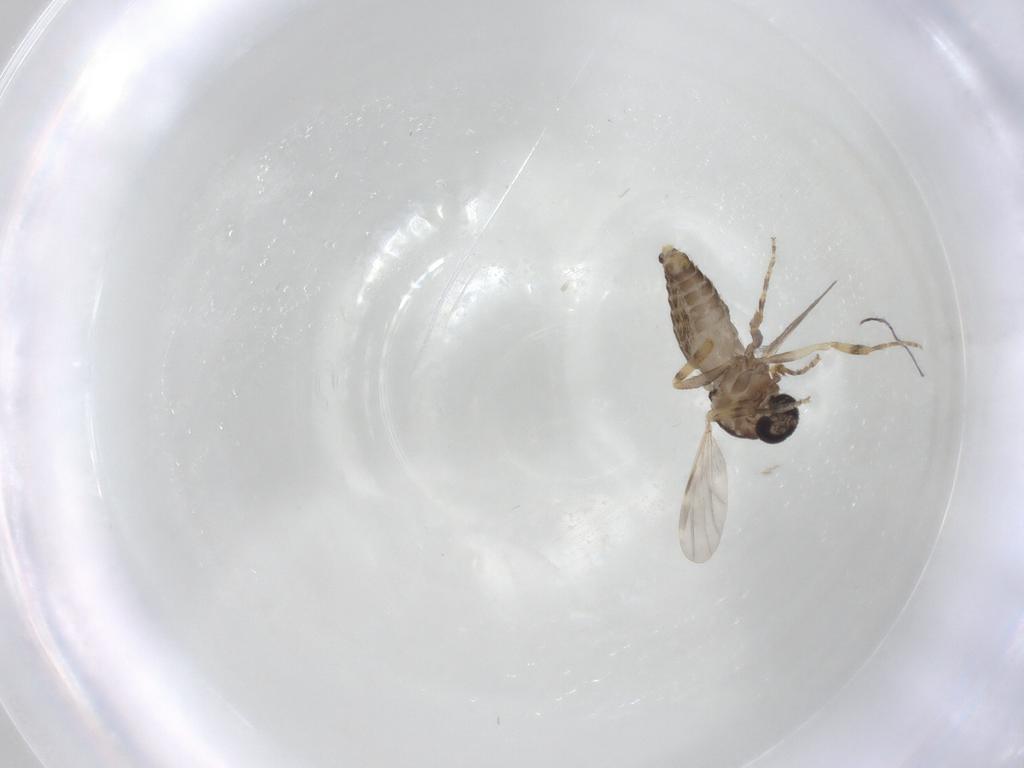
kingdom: Animalia
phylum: Arthropoda
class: Insecta
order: Diptera
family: Ceratopogonidae
